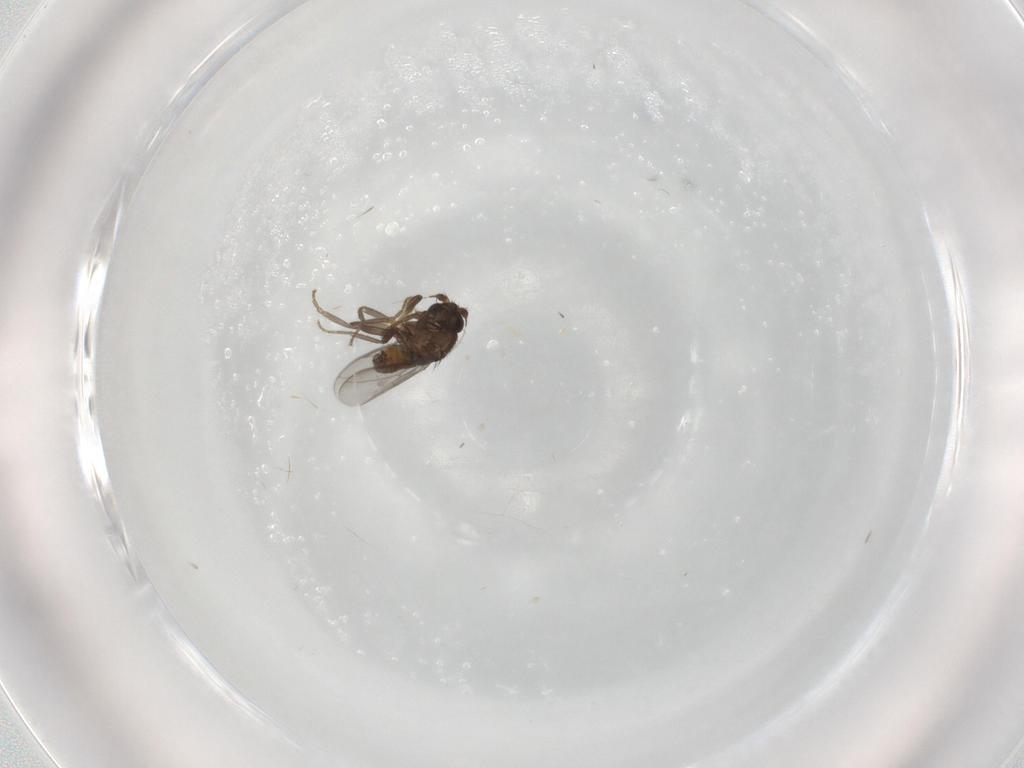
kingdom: Animalia
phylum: Arthropoda
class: Insecta
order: Diptera
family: Sphaeroceridae
